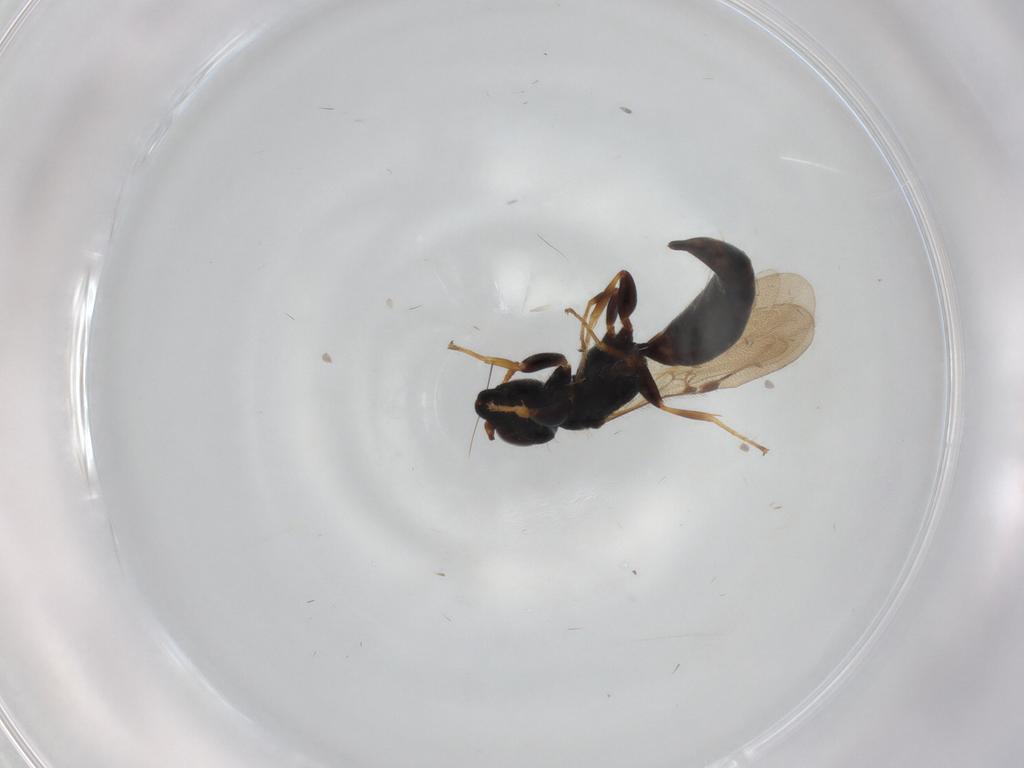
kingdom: Animalia
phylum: Arthropoda
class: Insecta
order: Hymenoptera
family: Bethylidae
